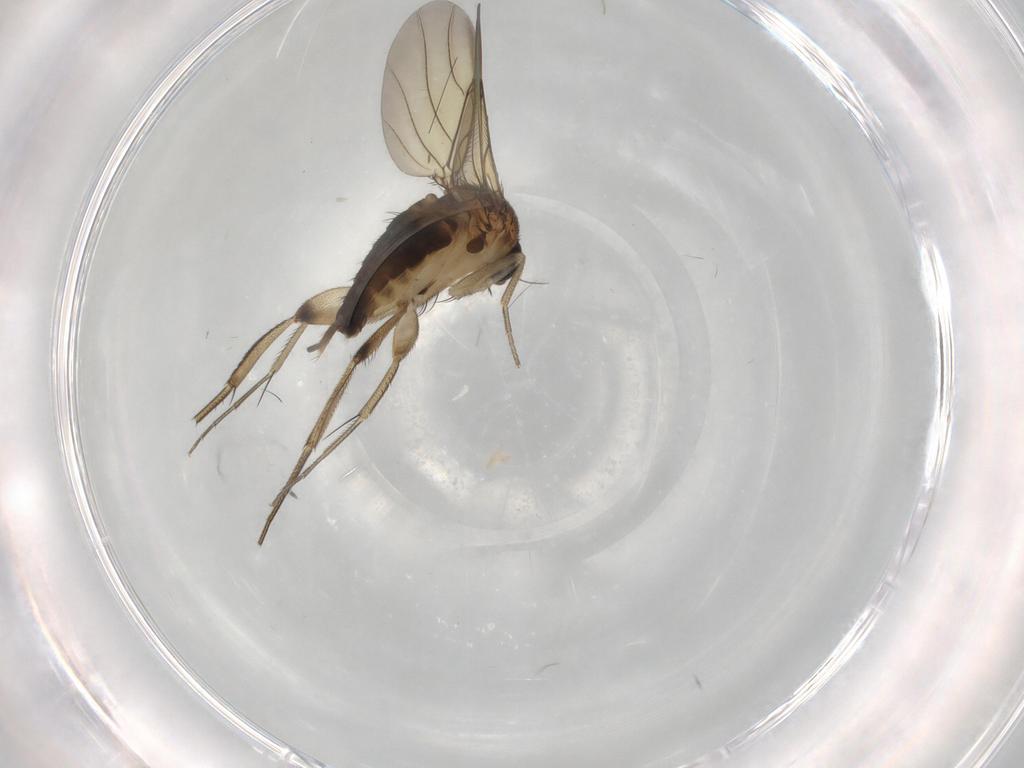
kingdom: Animalia
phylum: Arthropoda
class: Insecta
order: Diptera
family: Phoridae
